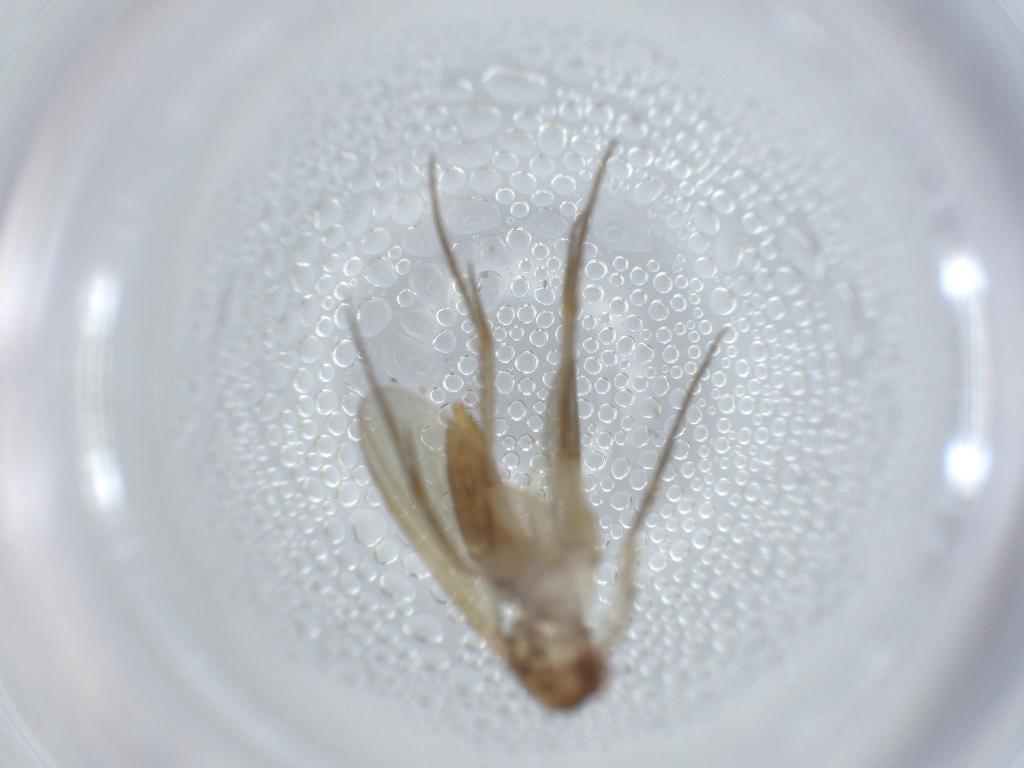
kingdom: Animalia
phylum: Arthropoda
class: Insecta
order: Diptera
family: Mycetophilidae
